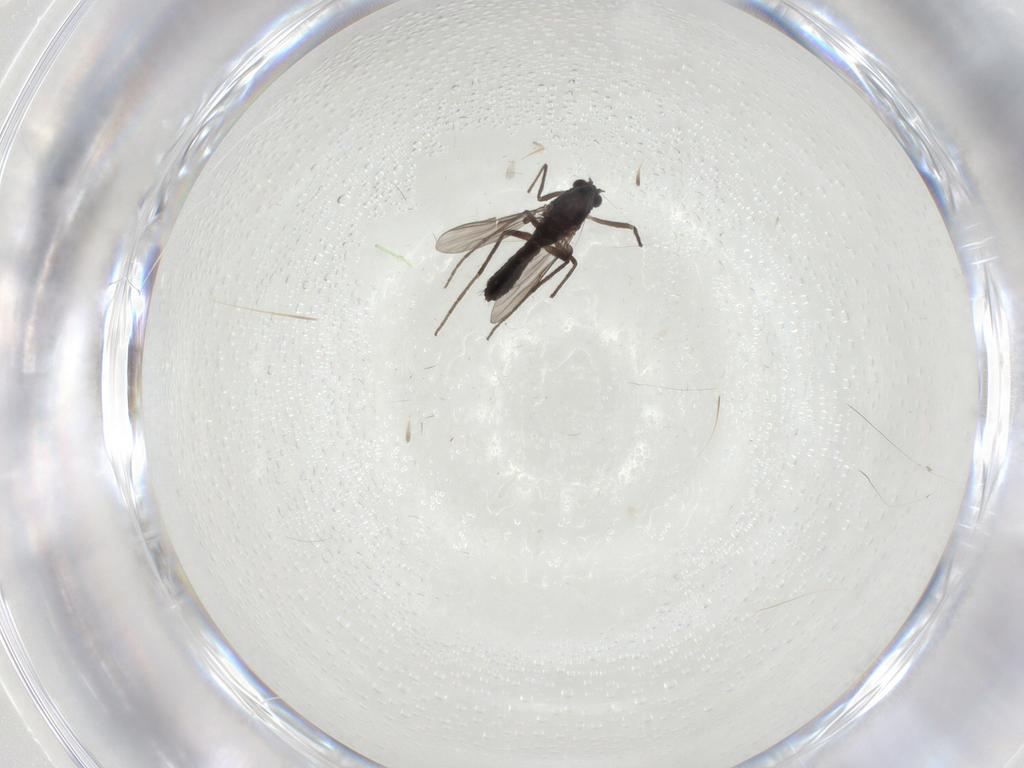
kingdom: Animalia
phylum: Arthropoda
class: Insecta
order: Diptera
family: Chironomidae
